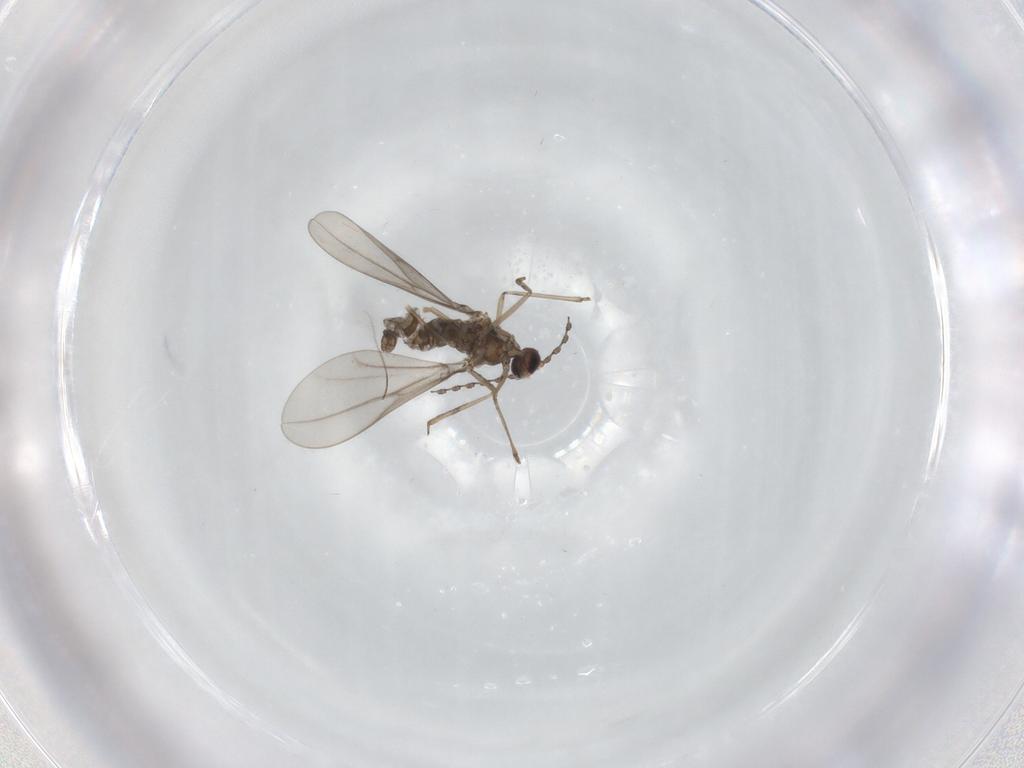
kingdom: Animalia
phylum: Arthropoda
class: Insecta
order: Diptera
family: Cecidomyiidae
